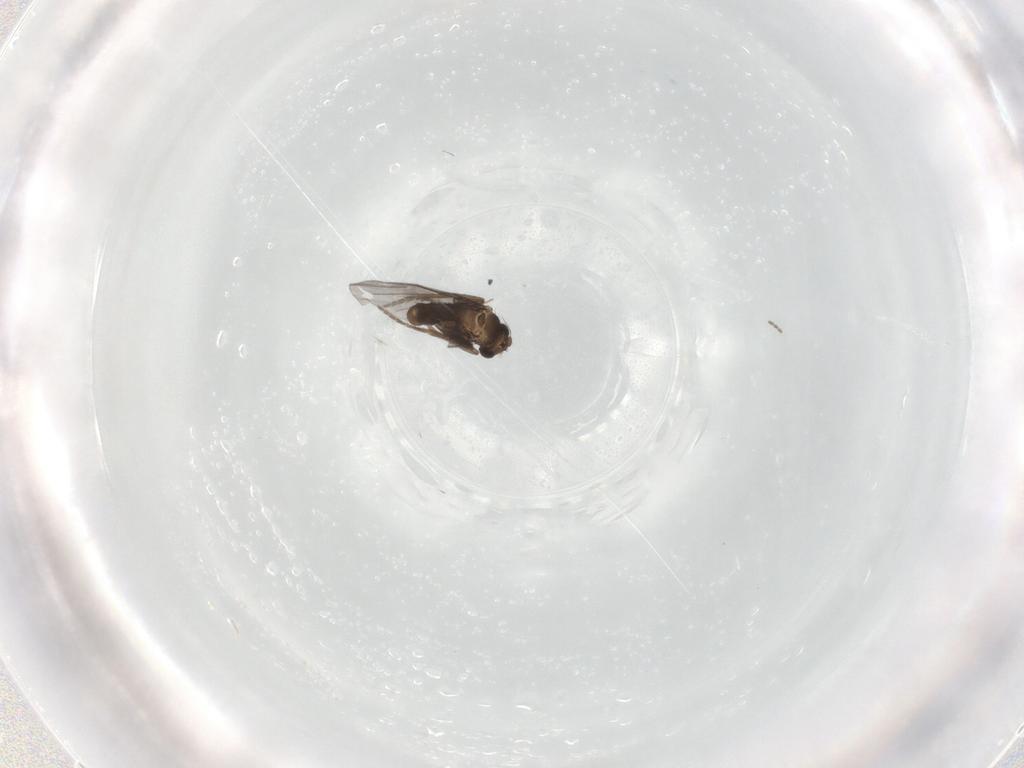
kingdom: Animalia
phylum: Arthropoda
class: Insecta
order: Diptera
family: Phoridae
